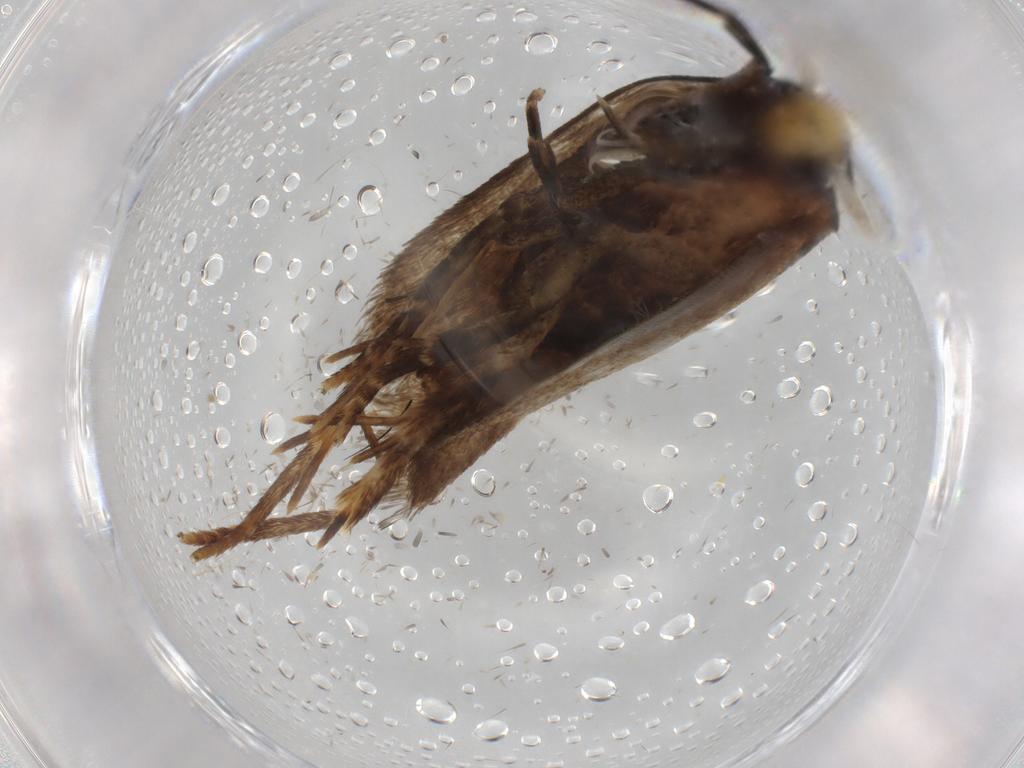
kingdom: Animalia
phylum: Arthropoda
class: Insecta
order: Lepidoptera
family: Autostichidae
